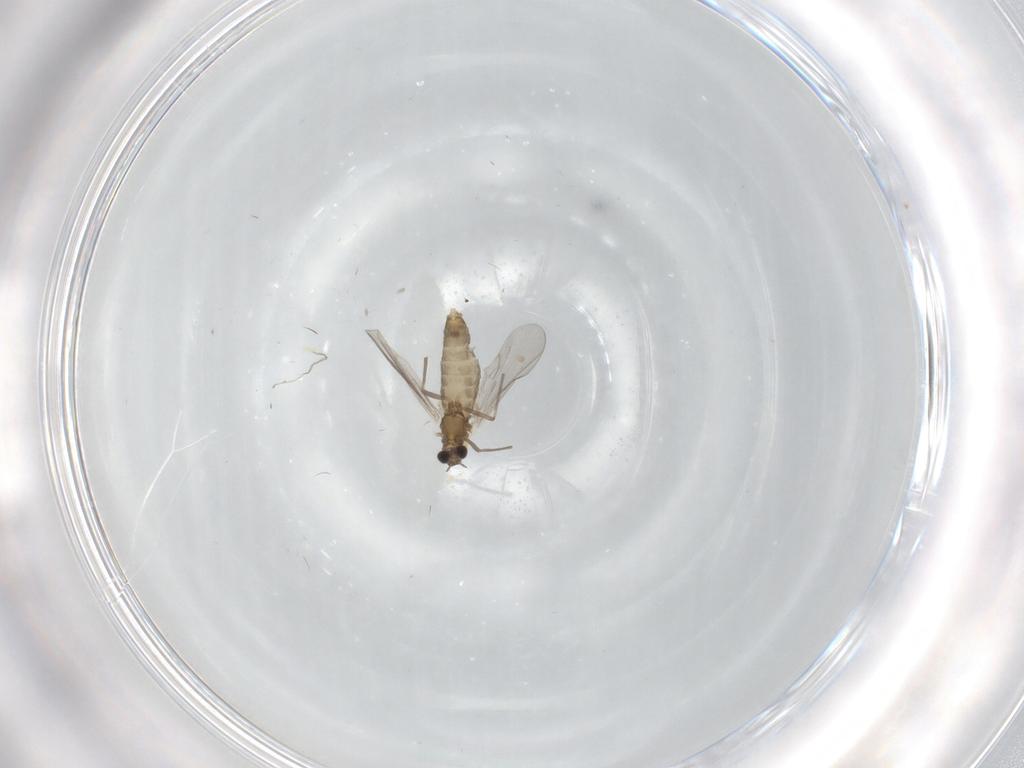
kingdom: Animalia
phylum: Arthropoda
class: Insecta
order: Diptera
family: Chironomidae
